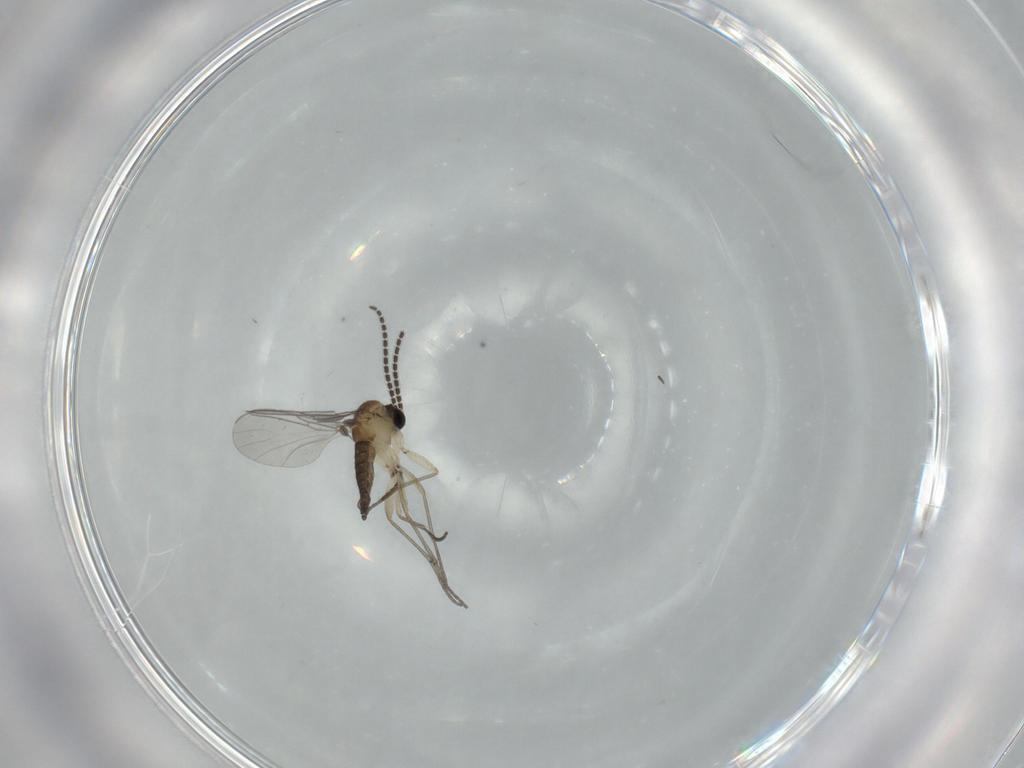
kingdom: Animalia
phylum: Arthropoda
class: Insecta
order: Diptera
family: Sciaridae
